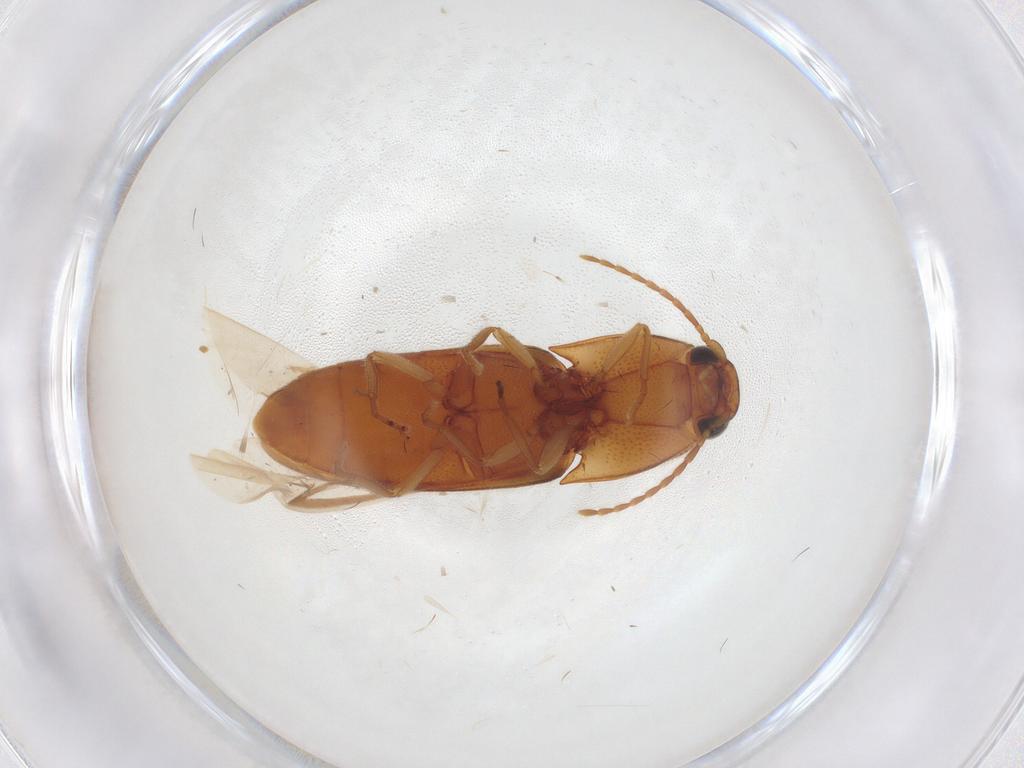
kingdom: Animalia
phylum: Arthropoda
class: Insecta
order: Coleoptera
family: Elateridae
